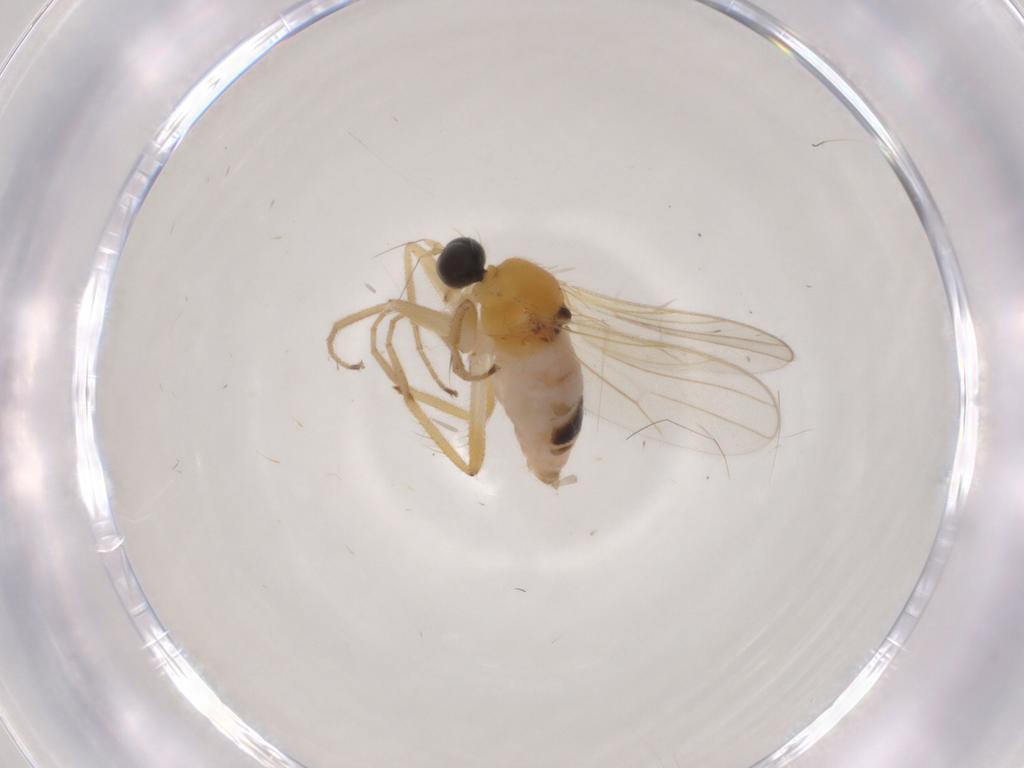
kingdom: Animalia
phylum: Arthropoda
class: Insecta
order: Diptera
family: Hybotidae
